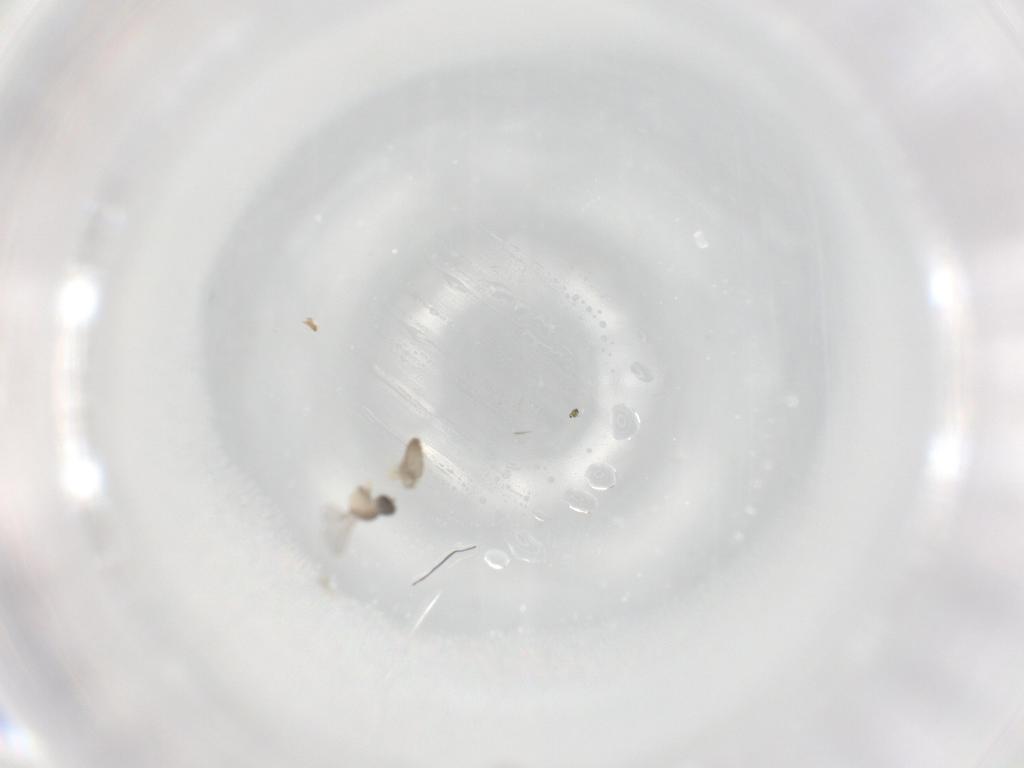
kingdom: Animalia
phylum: Arthropoda
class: Insecta
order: Diptera
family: Cecidomyiidae
